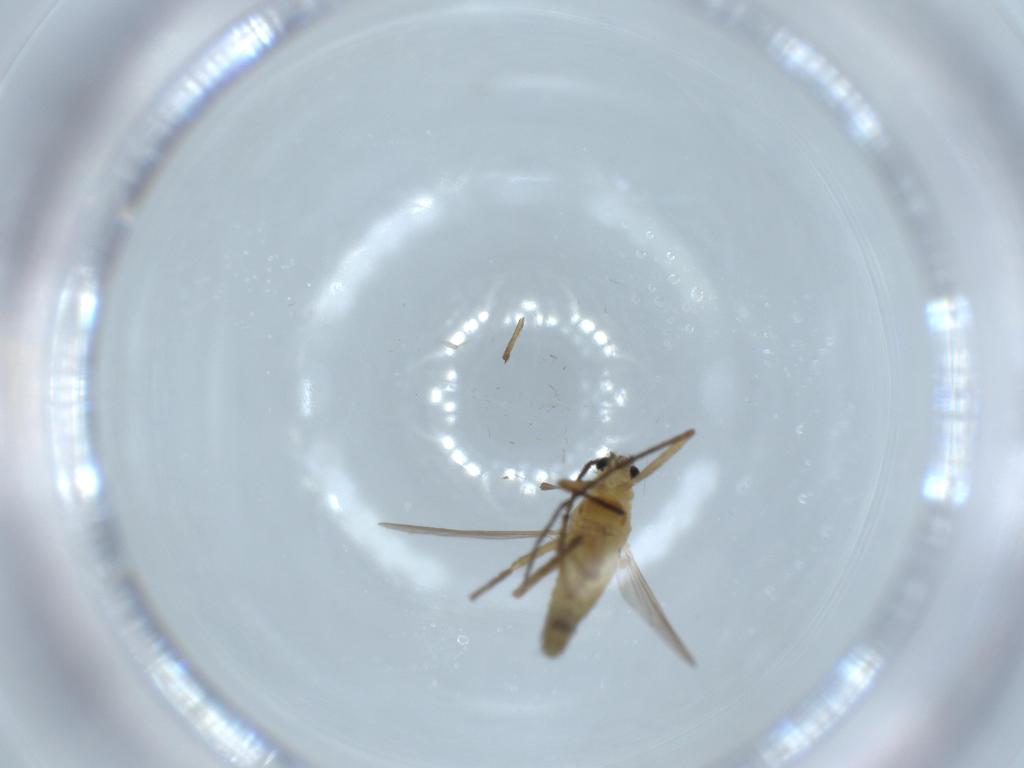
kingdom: Animalia
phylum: Arthropoda
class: Insecta
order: Diptera
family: Chironomidae
